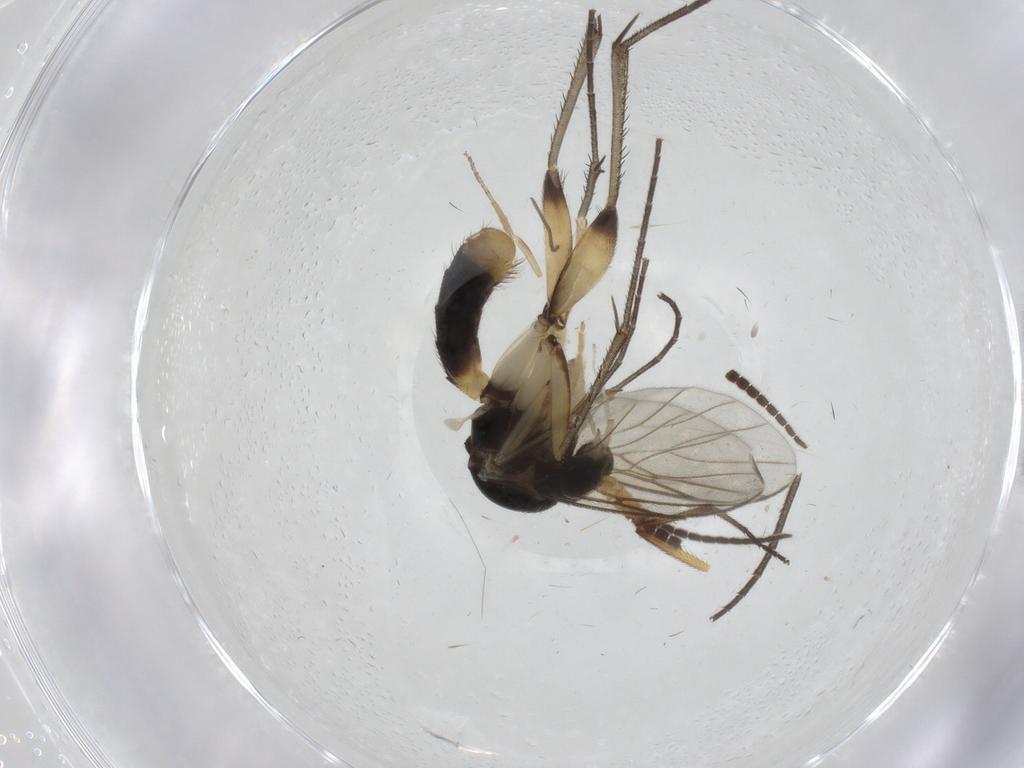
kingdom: Animalia
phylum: Arthropoda
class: Insecta
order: Diptera
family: Mycetophilidae
